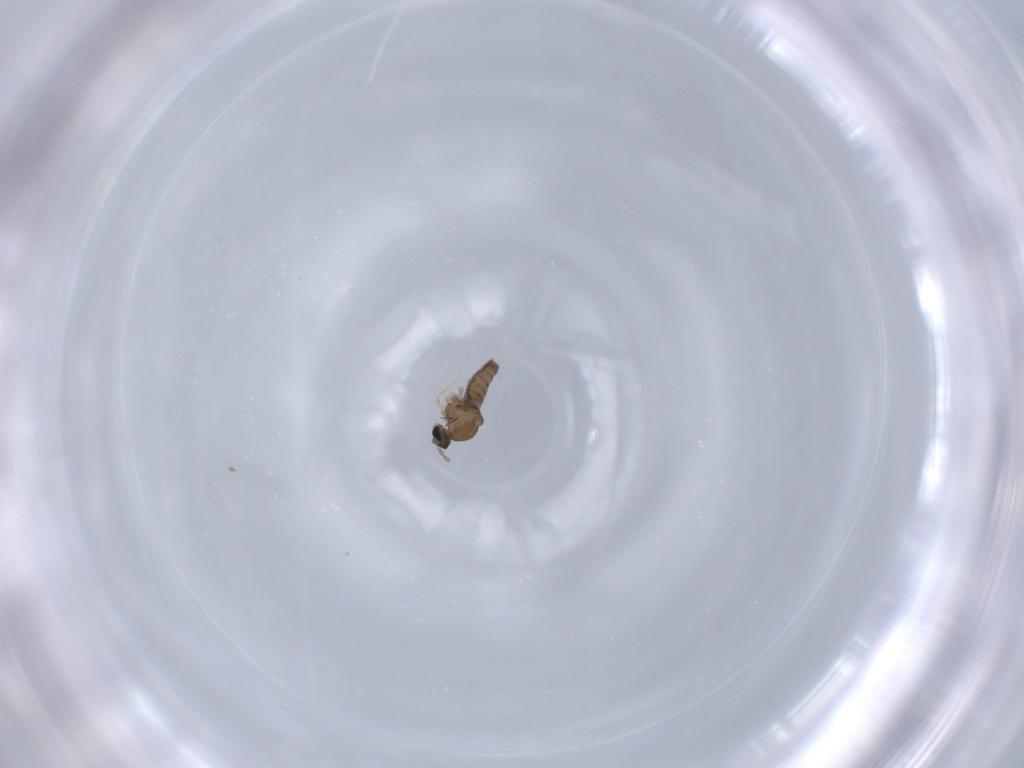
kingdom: Animalia
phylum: Arthropoda
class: Insecta
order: Diptera
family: Cecidomyiidae
